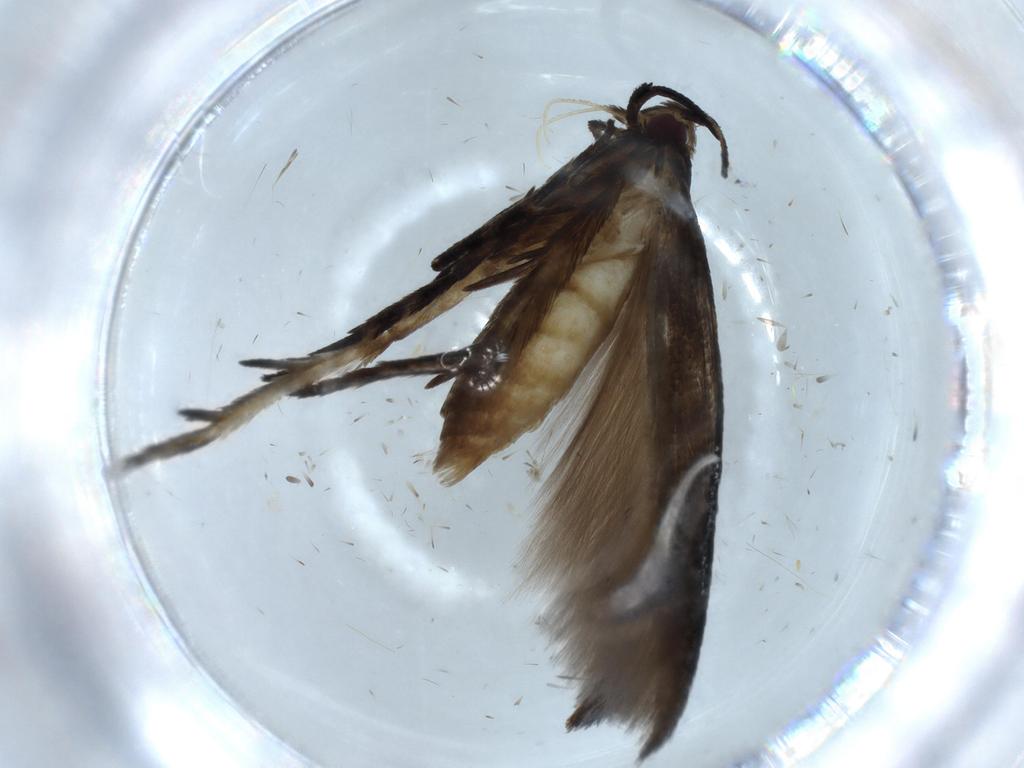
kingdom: Animalia
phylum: Arthropoda
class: Insecta
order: Lepidoptera
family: Cosmopterigidae
